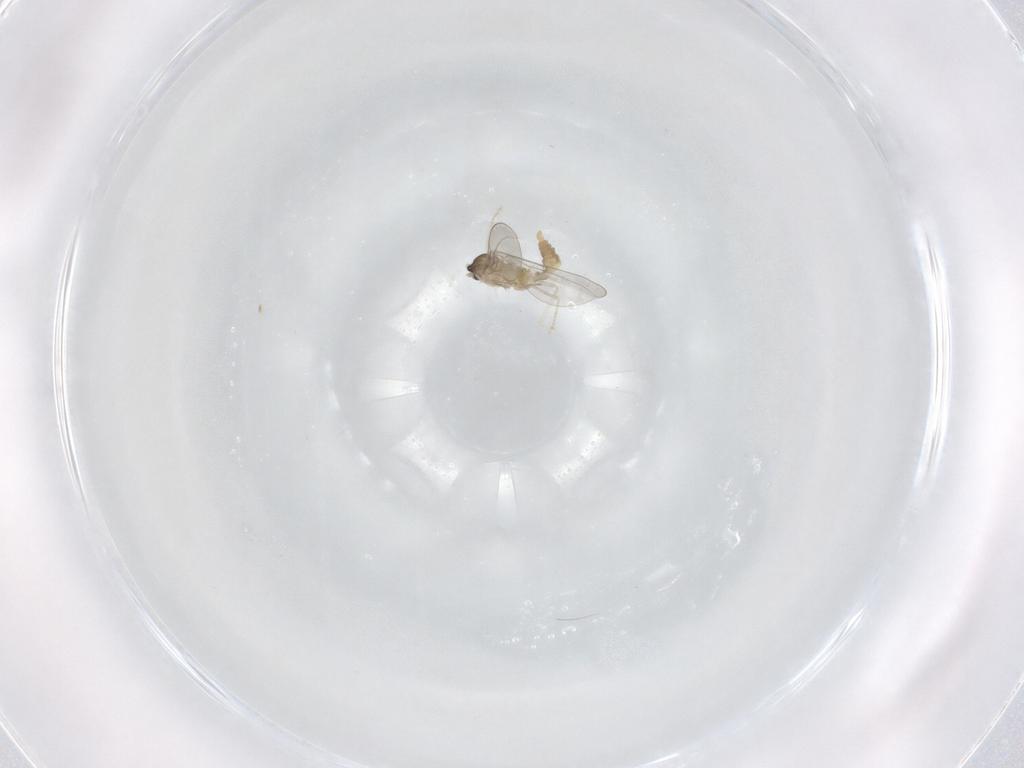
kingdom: Animalia
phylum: Arthropoda
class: Insecta
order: Diptera
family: Cecidomyiidae
